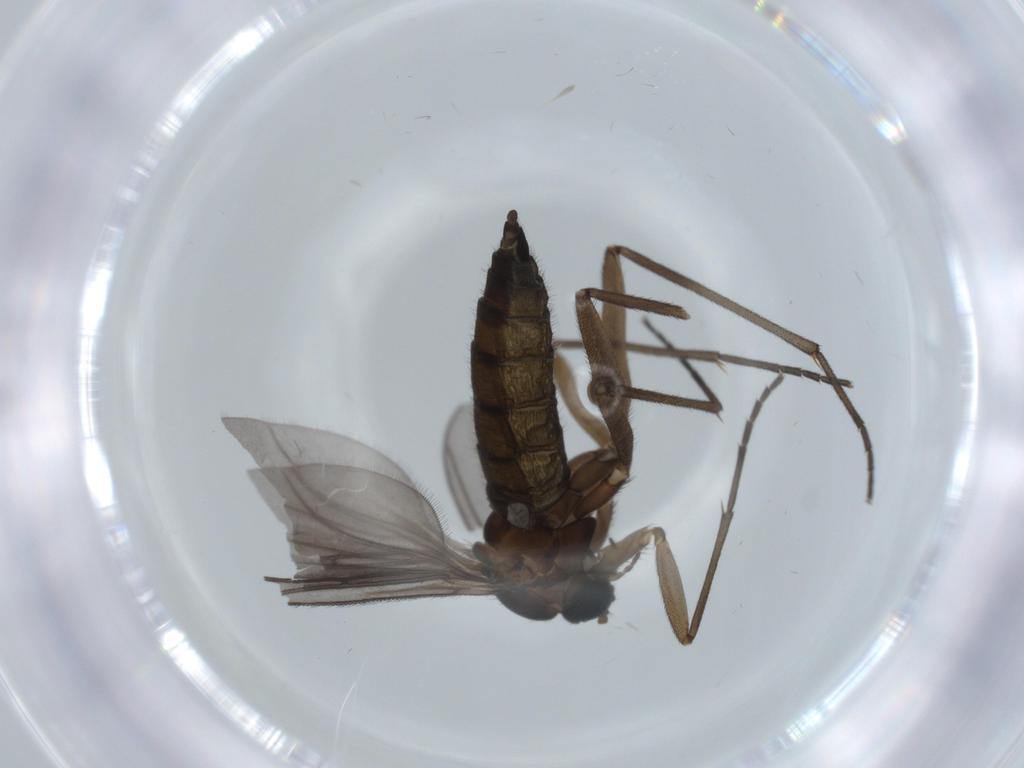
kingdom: Animalia
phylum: Arthropoda
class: Insecta
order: Diptera
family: Sciaridae
